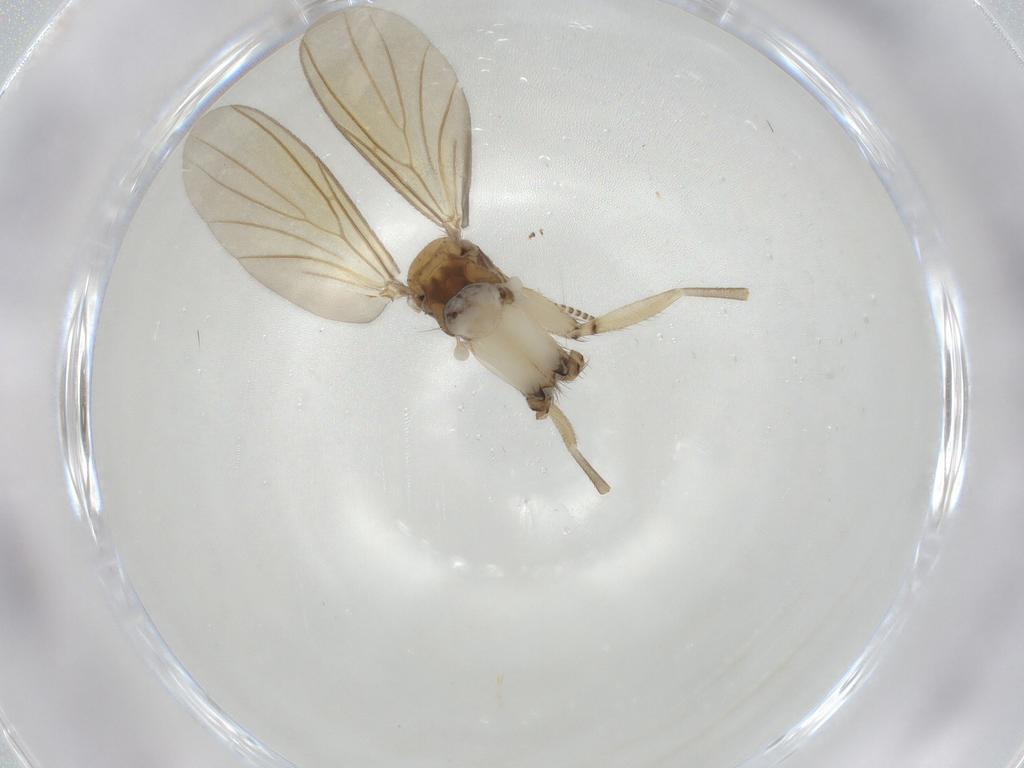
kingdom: Animalia
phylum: Arthropoda
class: Insecta
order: Diptera
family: Mycetophilidae
